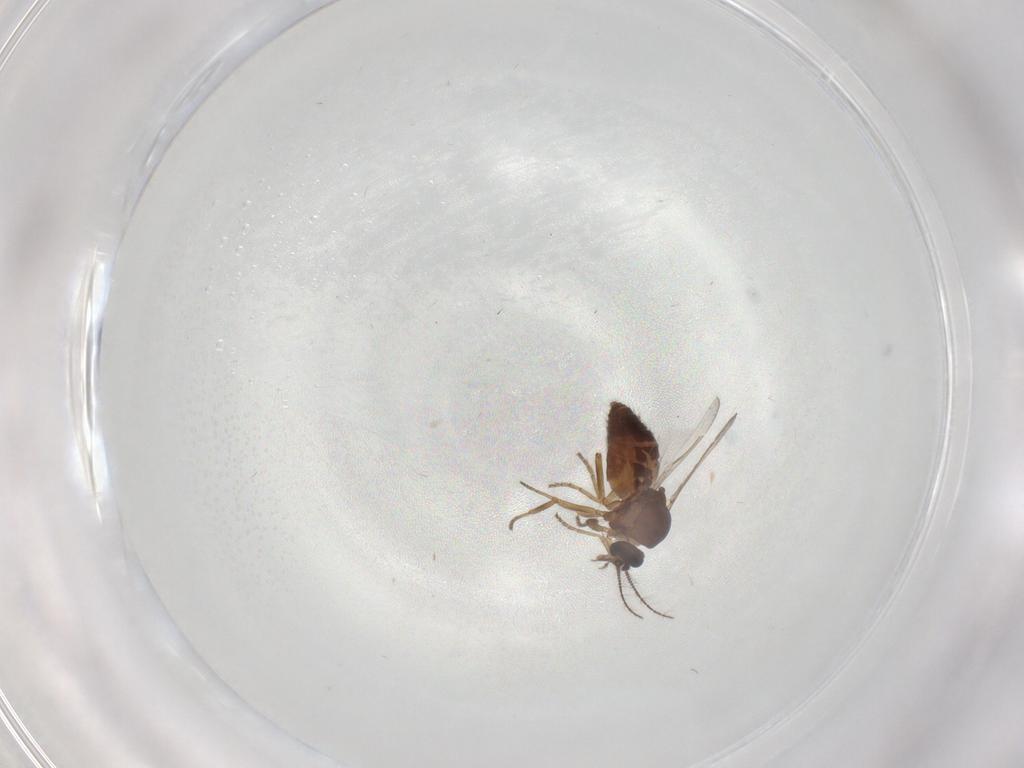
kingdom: Animalia
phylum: Arthropoda
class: Insecta
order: Diptera
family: Ceratopogonidae
